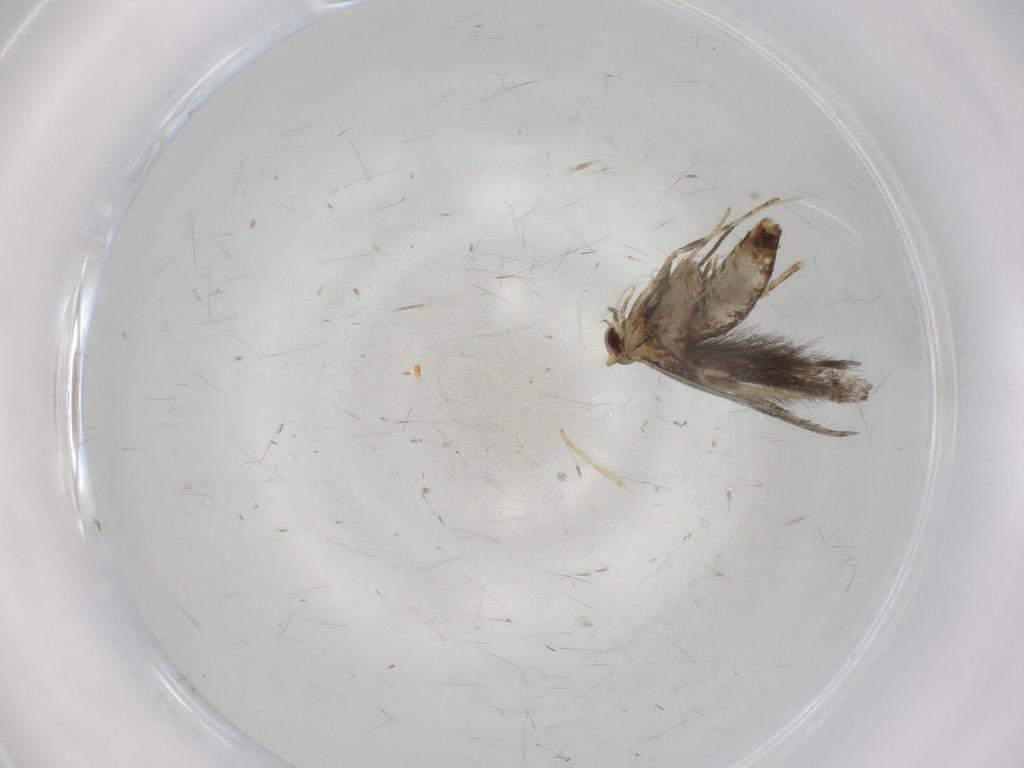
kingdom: Animalia
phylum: Arthropoda
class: Insecta
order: Lepidoptera
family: Gracillariidae
